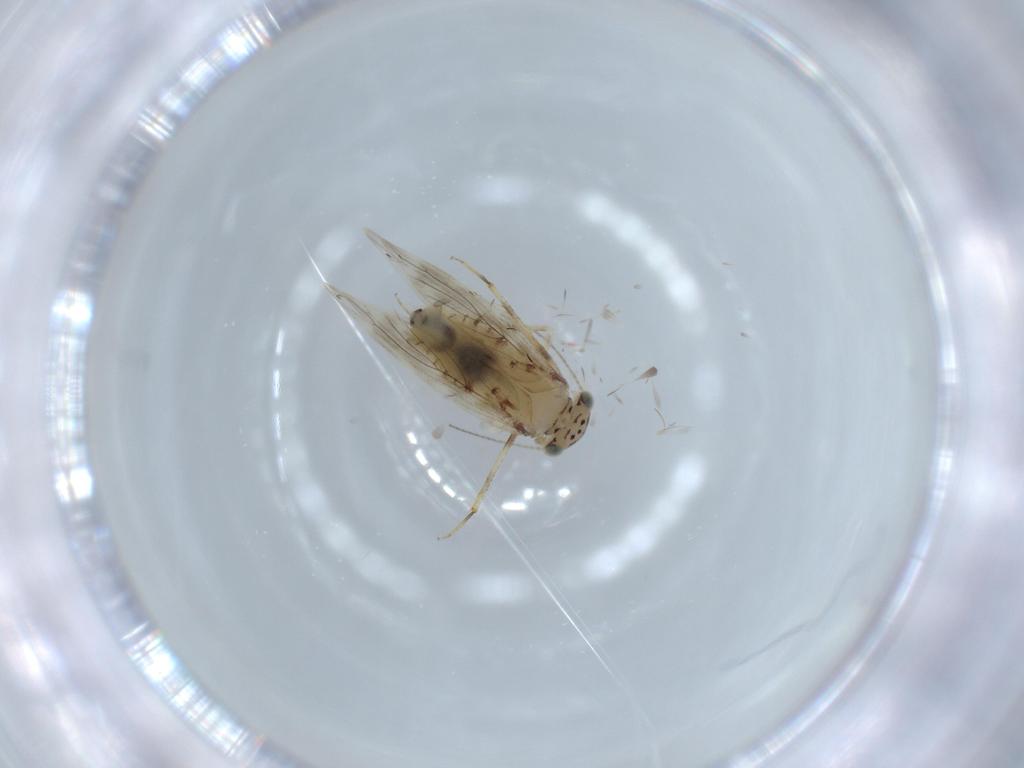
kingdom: Animalia
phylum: Arthropoda
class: Insecta
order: Psocodea
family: Lepidopsocidae
